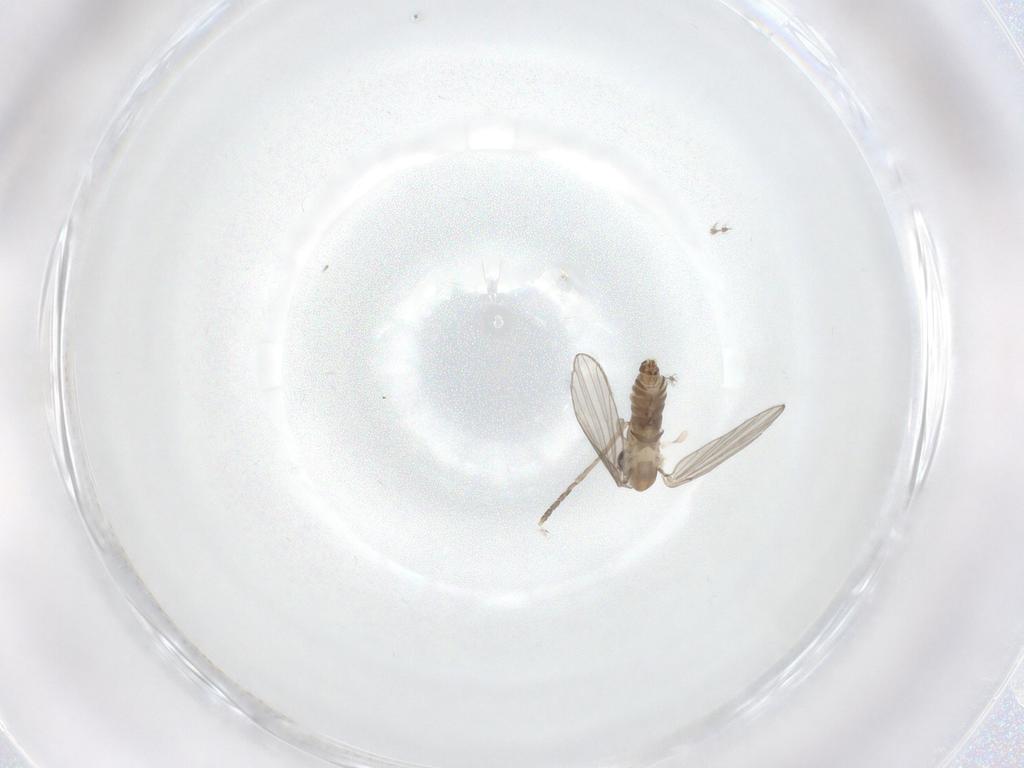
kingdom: Animalia
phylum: Arthropoda
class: Insecta
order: Diptera
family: Psychodidae
